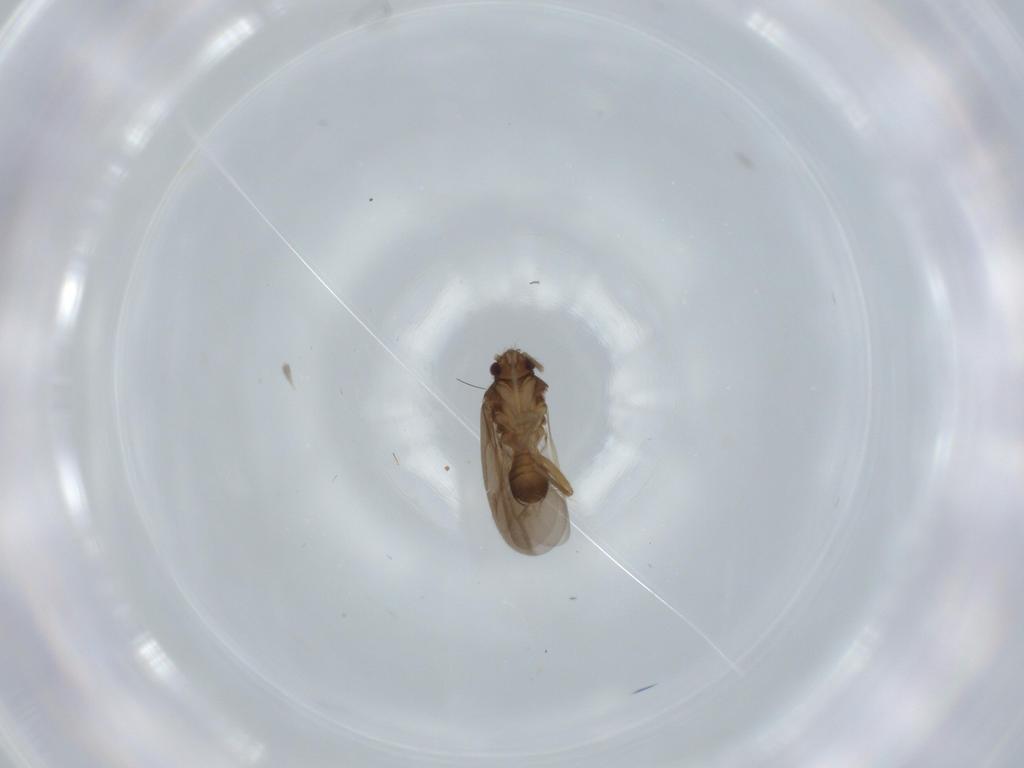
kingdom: Animalia
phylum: Arthropoda
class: Insecta
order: Hemiptera
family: Ceratocombidae
